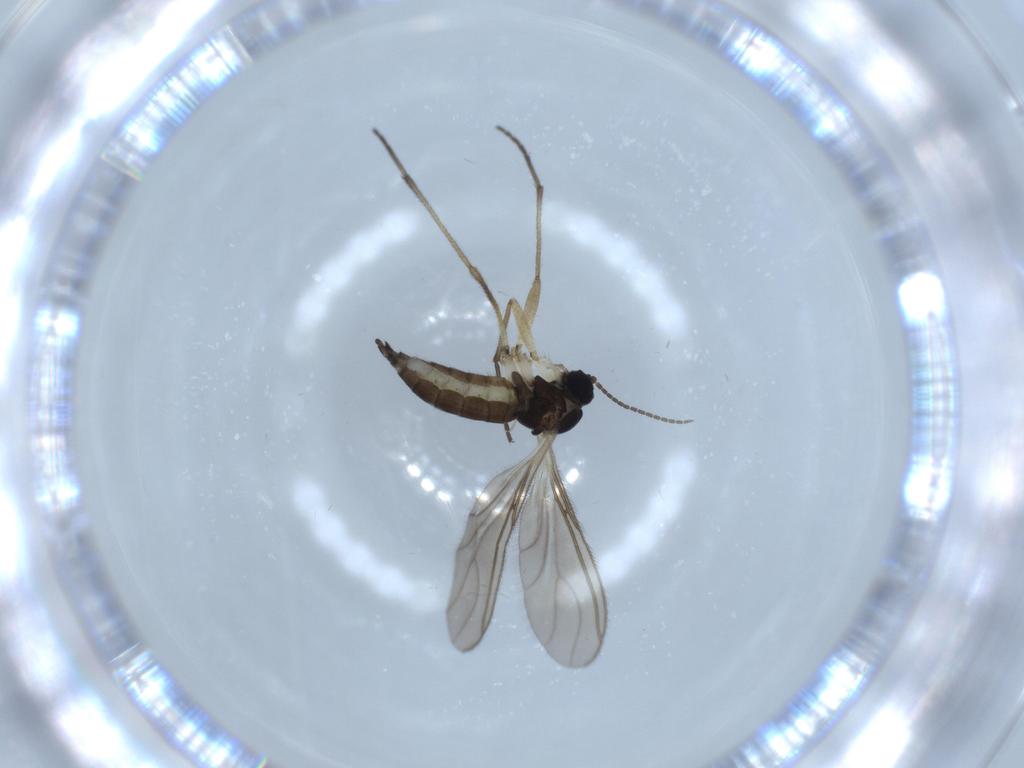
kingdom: Animalia
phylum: Arthropoda
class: Insecta
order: Diptera
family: Sciaridae
